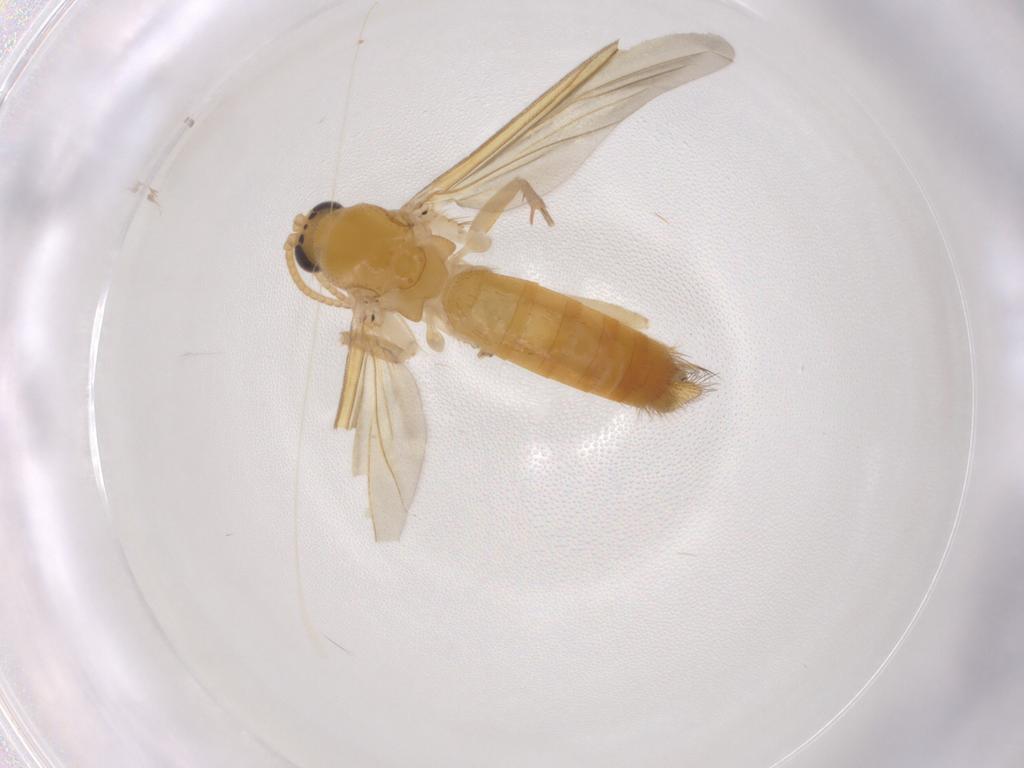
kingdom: Animalia
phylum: Arthropoda
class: Insecta
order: Diptera
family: Mycetophilidae
